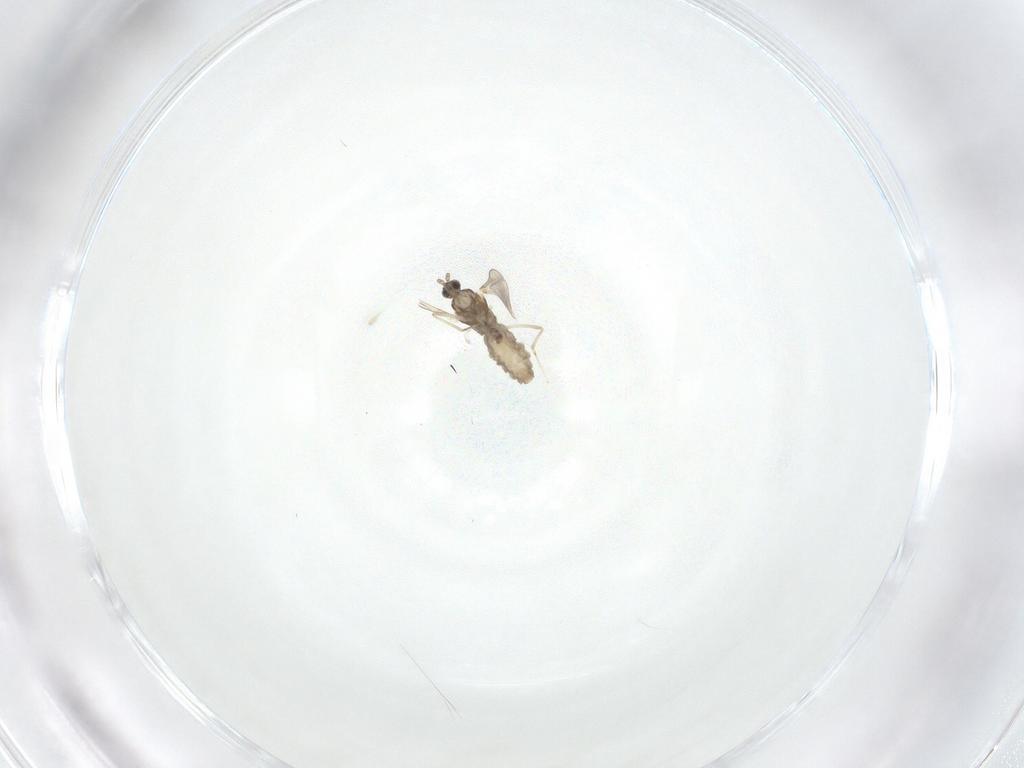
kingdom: Animalia
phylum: Arthropoda
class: Insecta
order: Diptera
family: Cecidomyiidae
